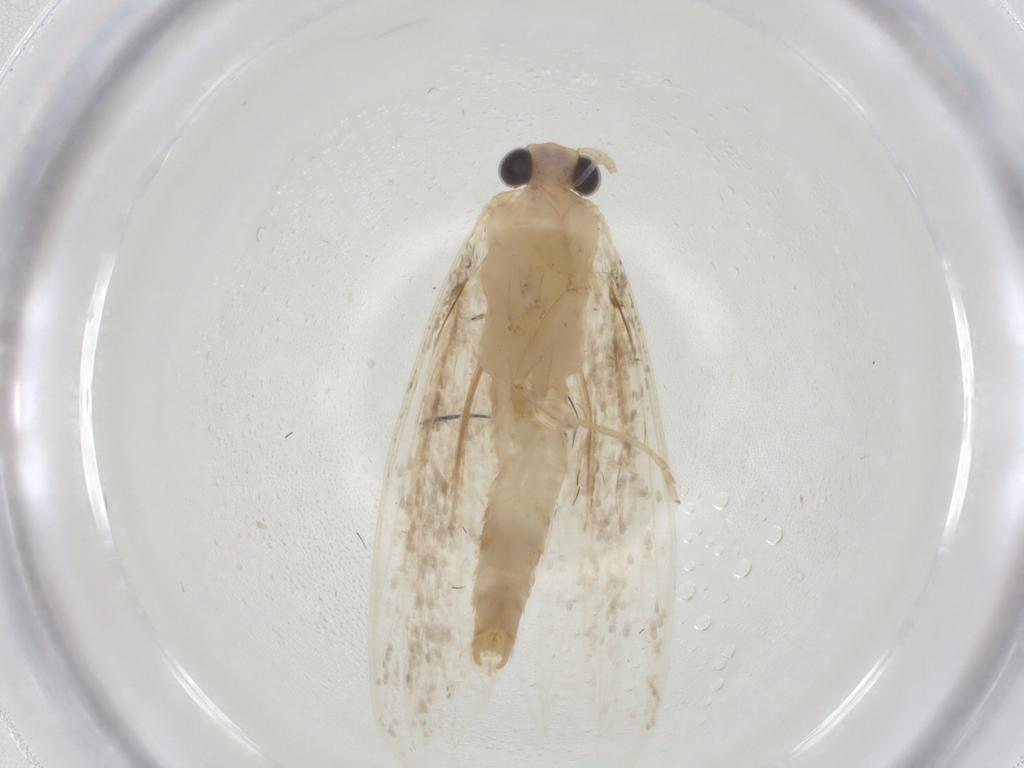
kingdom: Animalia
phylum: Arthropoda
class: Insecta
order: Lepidoptera
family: Tineidae
